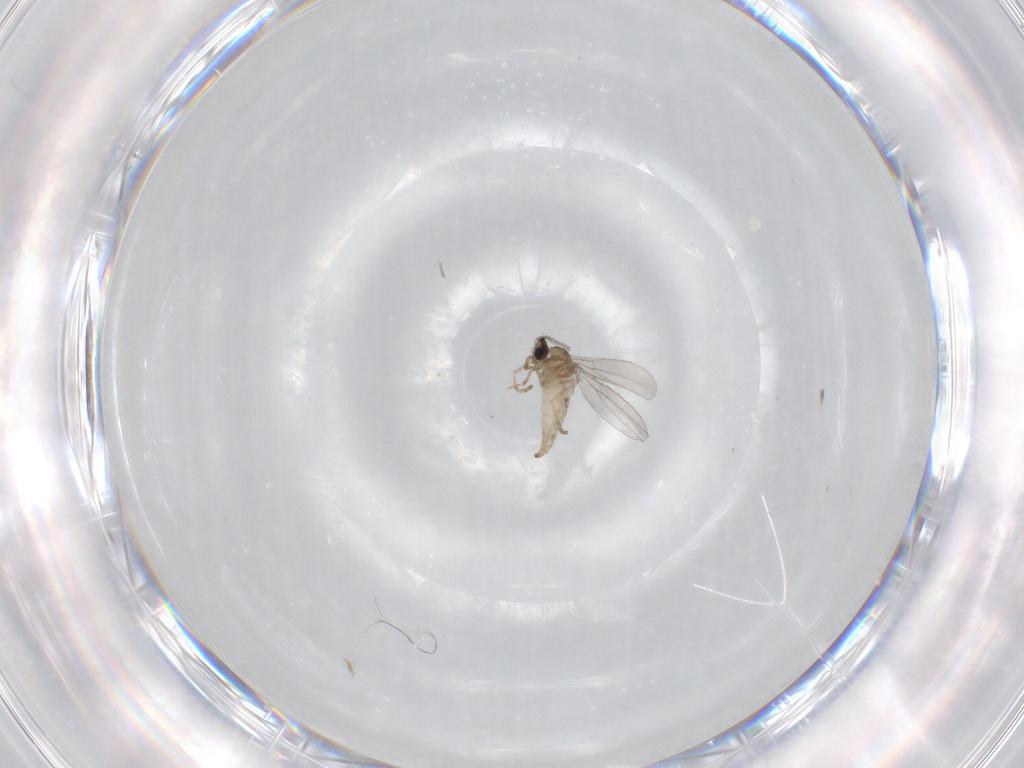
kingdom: Animalia
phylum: Arthropoda
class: Insecta
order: Diptera
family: Cecidomyiidae
